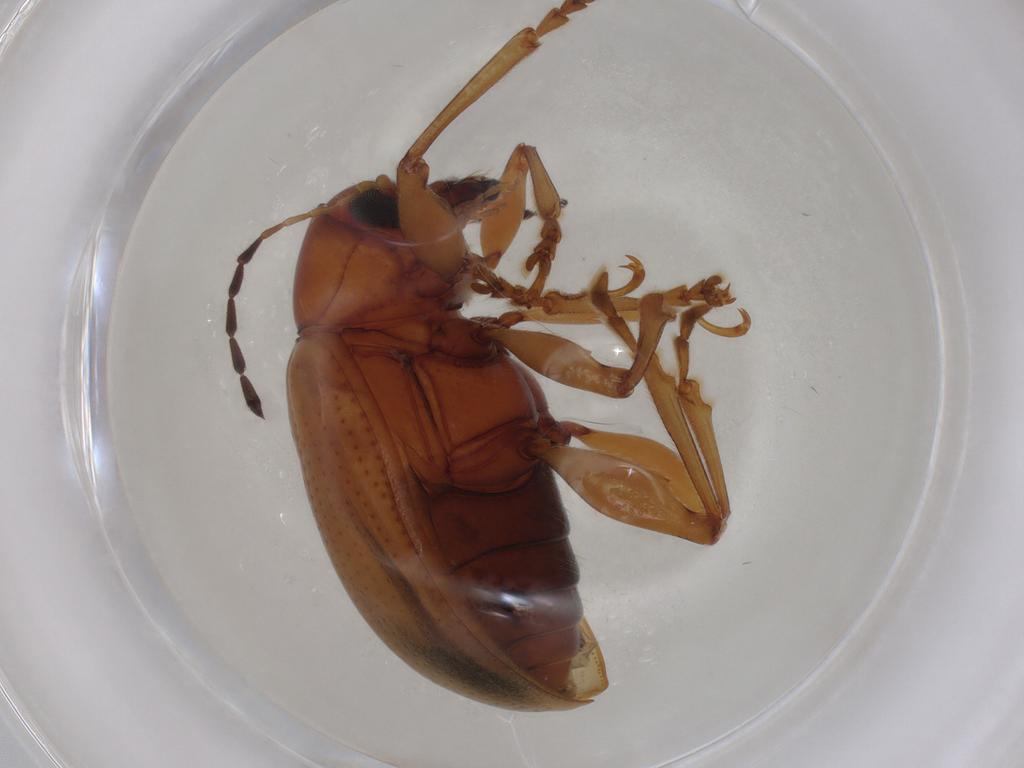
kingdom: Animalia
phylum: Arthropoda
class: Insecta
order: Coleoptera
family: Chrysomelidae
